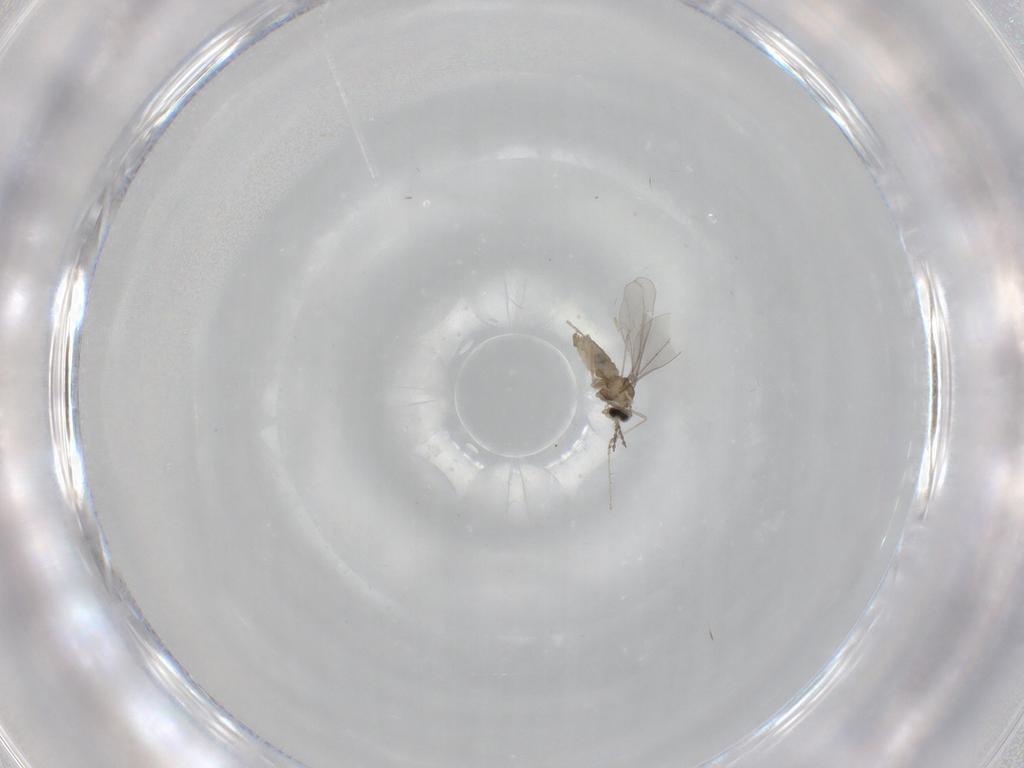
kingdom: Animalia
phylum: Arthropoda
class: Insecta
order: Diptera
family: Cecidomyiidae
